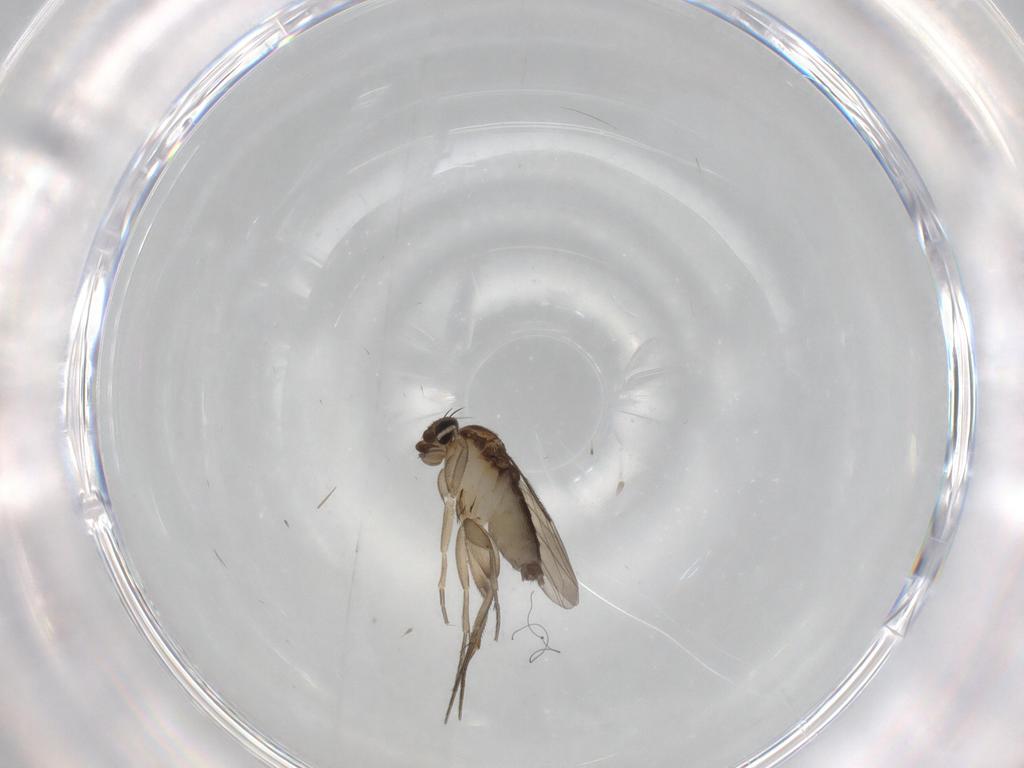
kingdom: Animalia
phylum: Arthropoda
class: Insecta
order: Diptera
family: Phoridae
